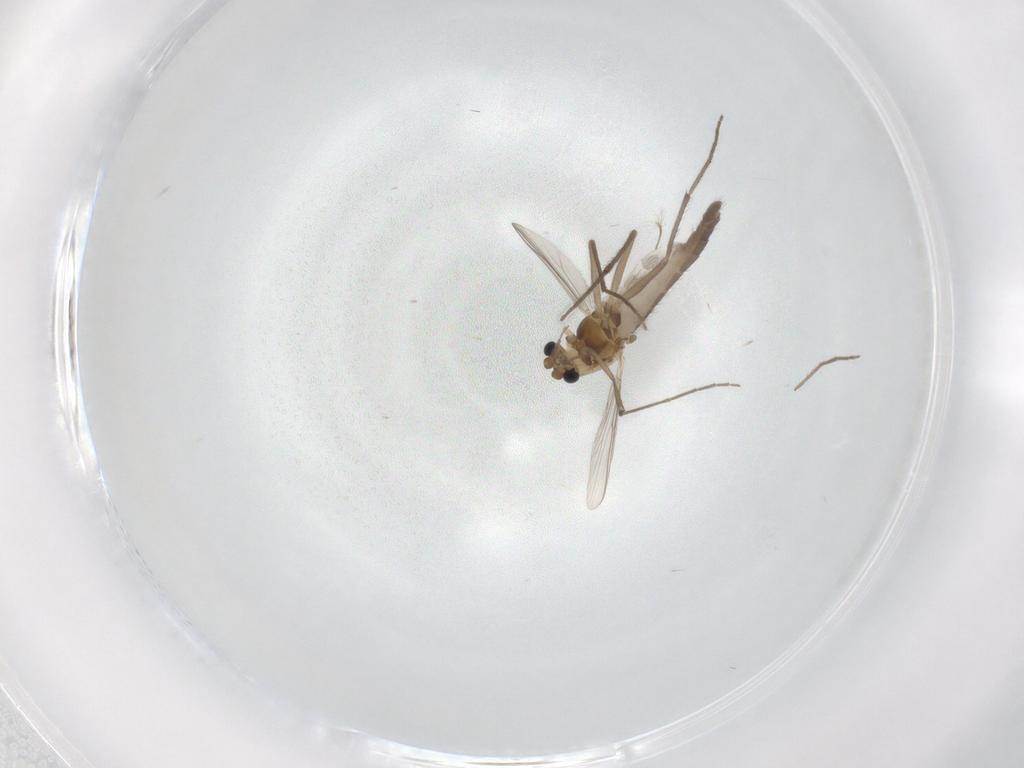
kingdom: Animalia
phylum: Arthropoda
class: Insecta
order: Diptera
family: Chironomidae
